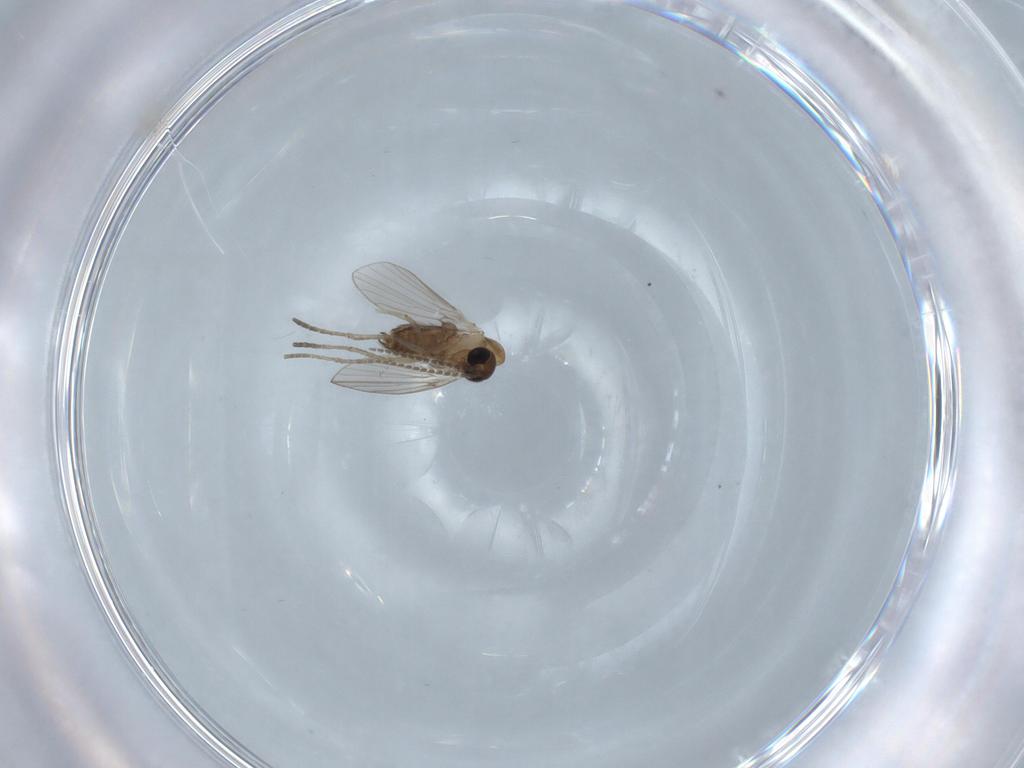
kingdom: Animalia
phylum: Arthropoda
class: Insecta
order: Diptera
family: Limoniidae
